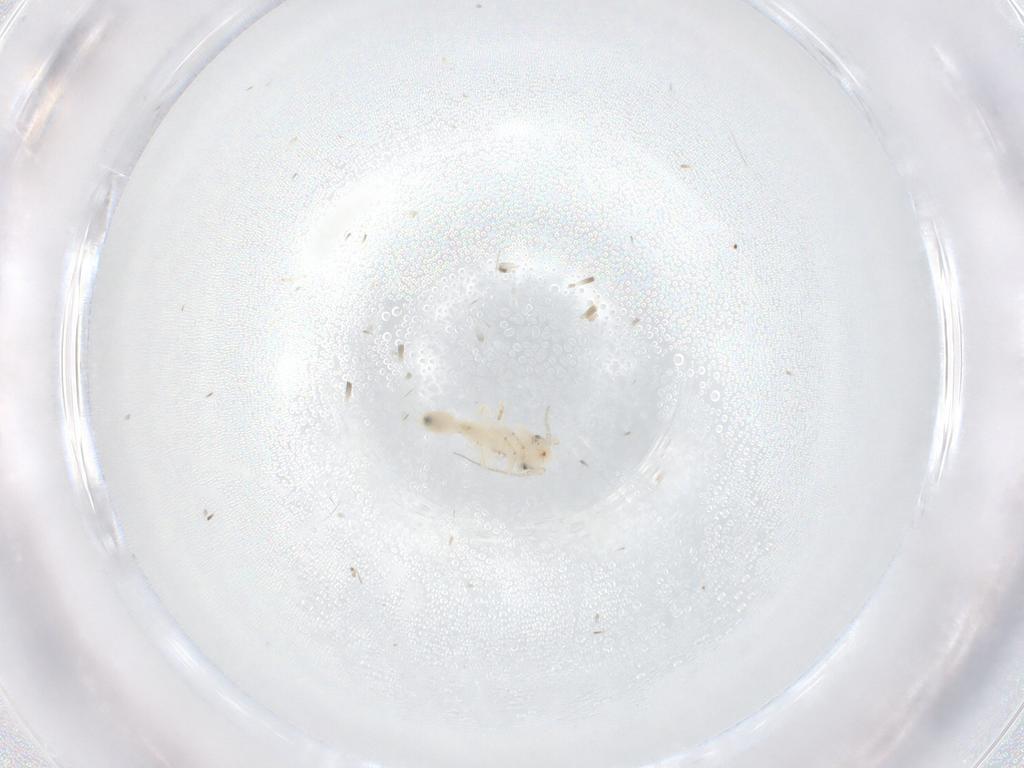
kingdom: Animalia
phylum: Arthropoda
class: Insecta
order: Psocodea
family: Lepidopsocidae
